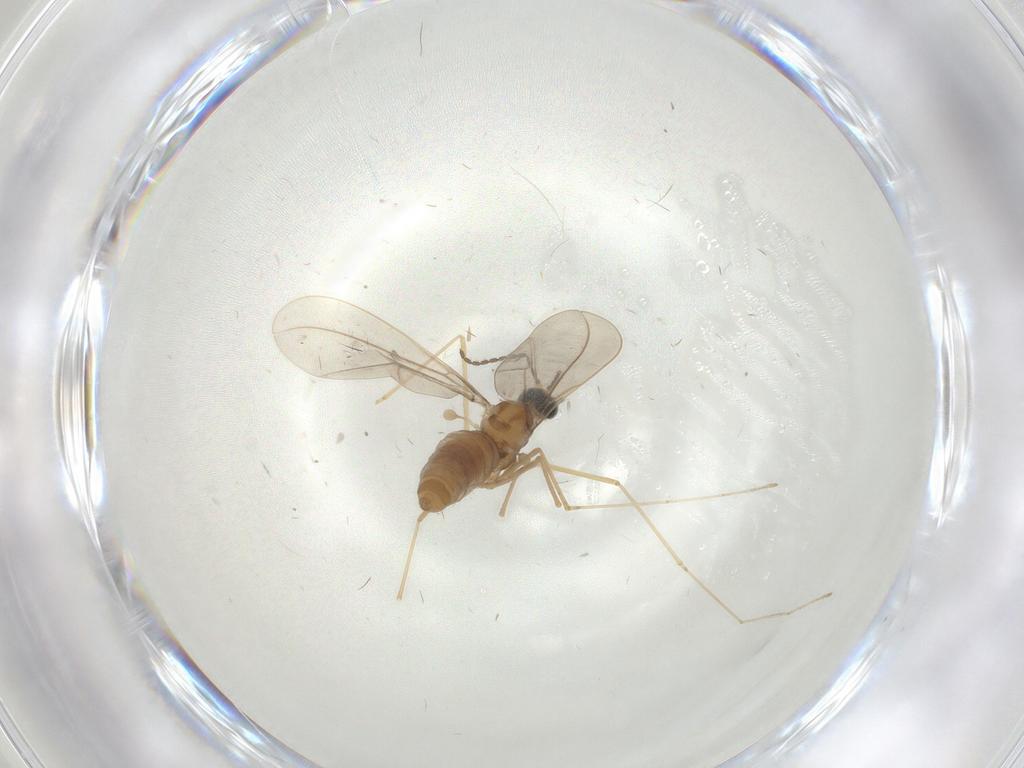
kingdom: Animalia
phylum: Arthropoda
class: Insecta
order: Diptera
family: Cecidomyiidae
